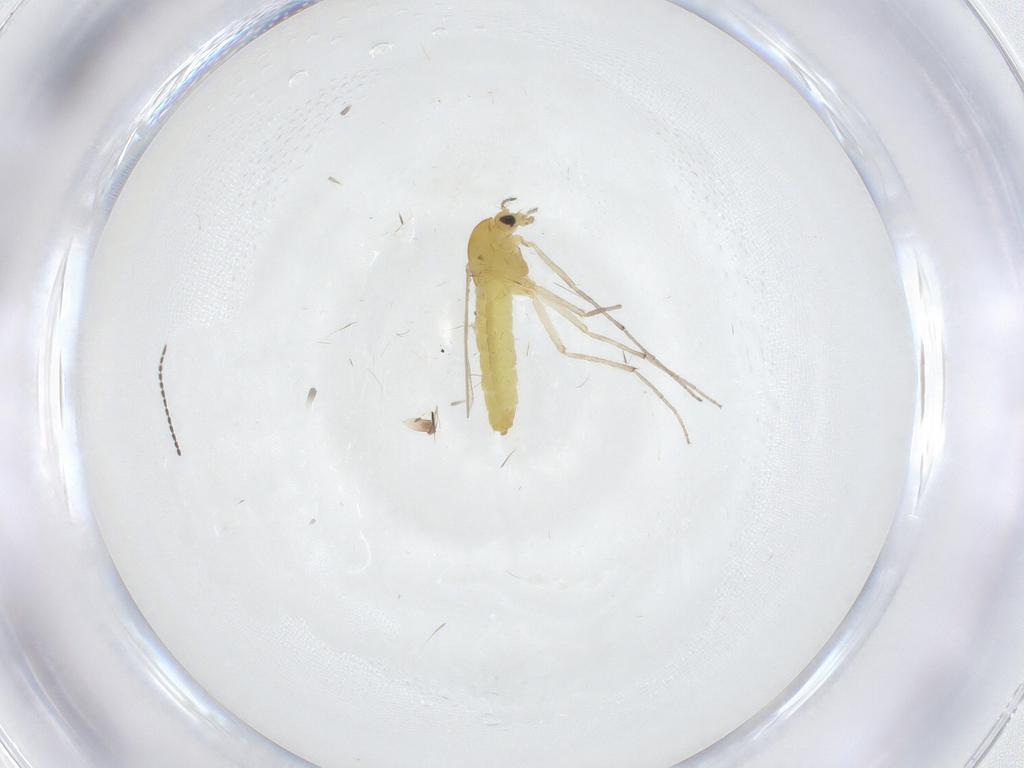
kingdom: Animalia
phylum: Arthropoda
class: Insecta
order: Diptera
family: Chironomidae
